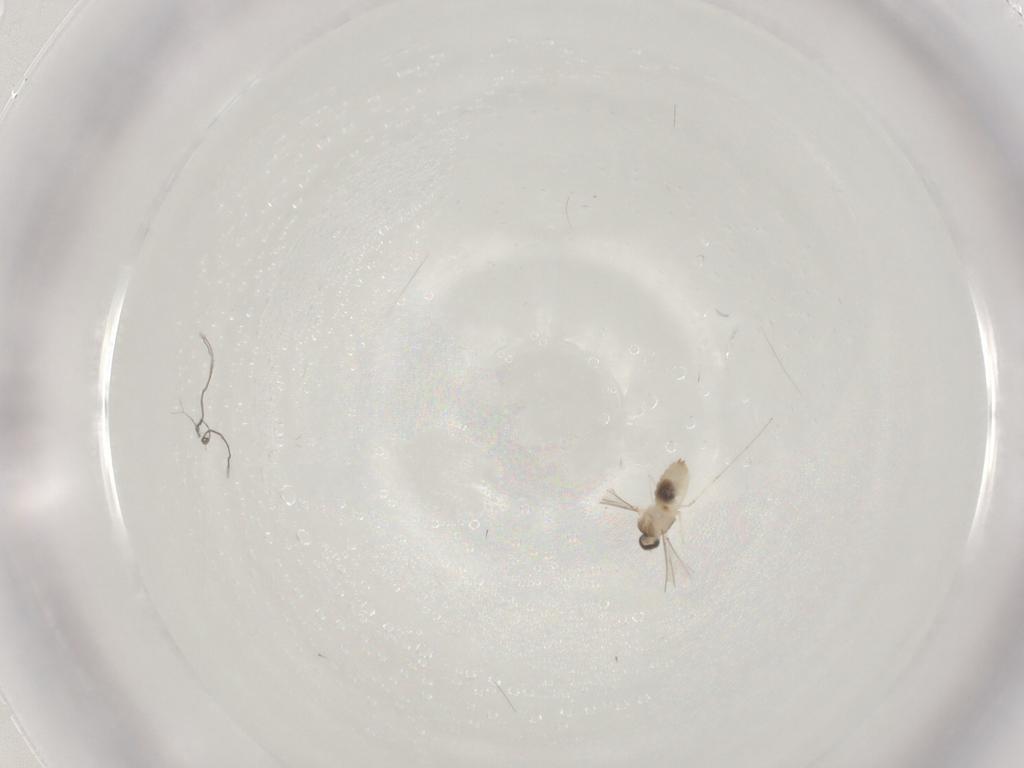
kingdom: Animalia
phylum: Arthropoda
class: Insecta
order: Diptera
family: Cecidomyiidae
